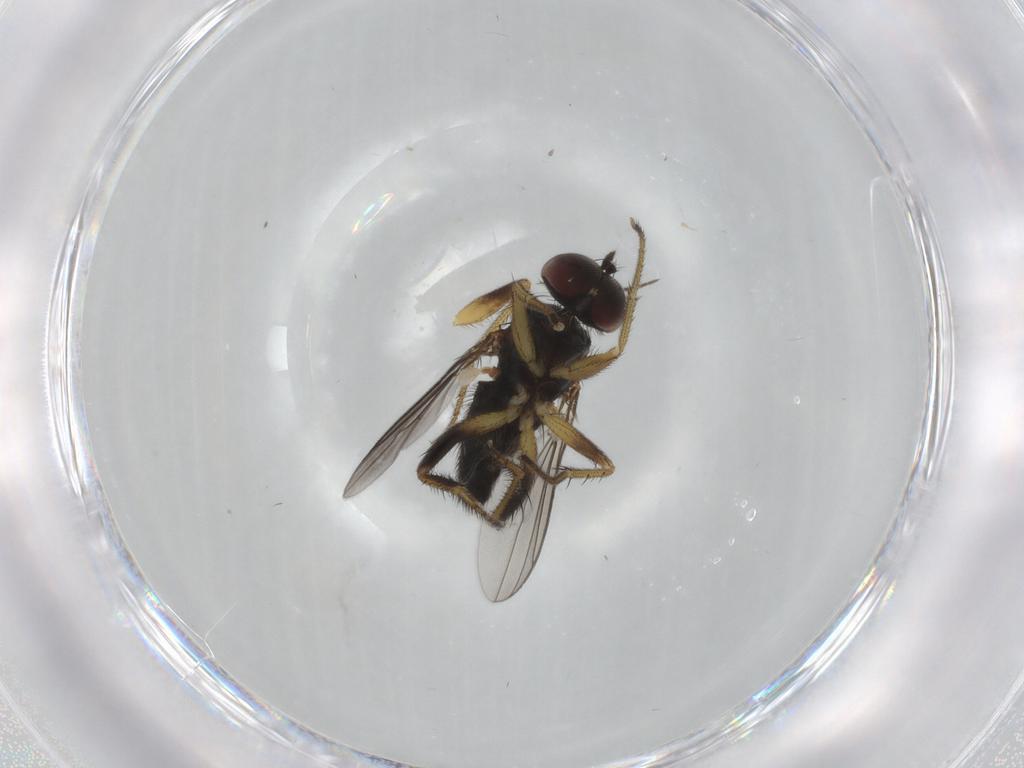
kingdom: Animalia
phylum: Arthropoda
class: Insecta
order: Diptera
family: Dolichopodidae
